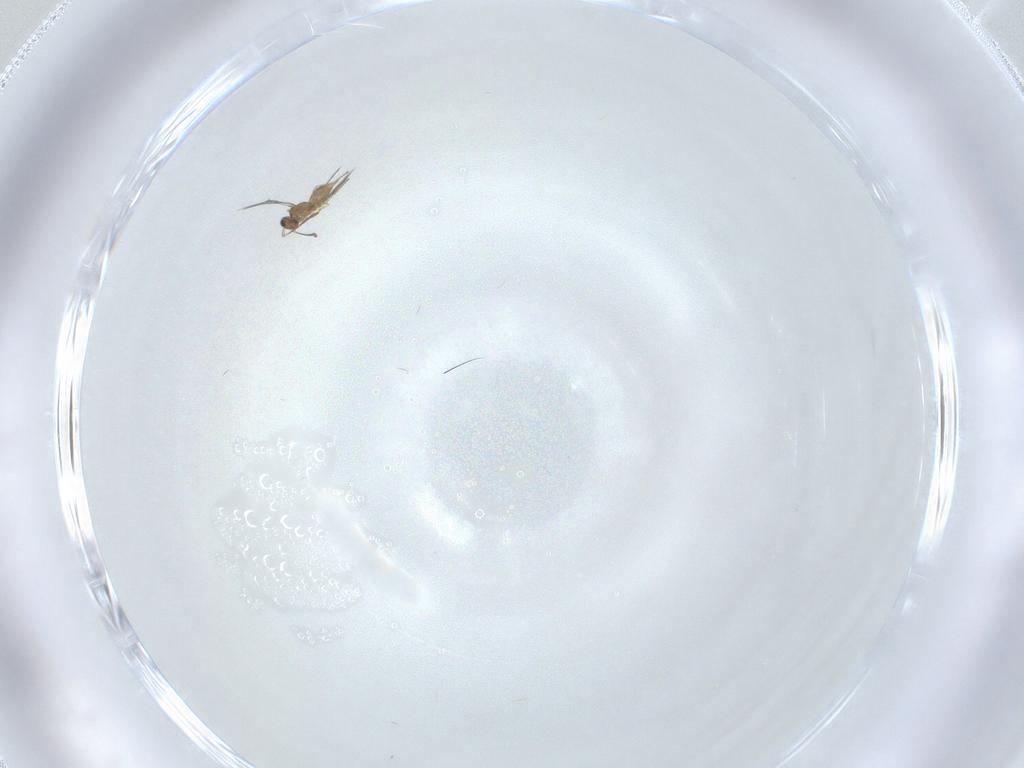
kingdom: Animalia
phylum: Arthropoda
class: Insecta
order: Hymenoptera
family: Mymaridae
